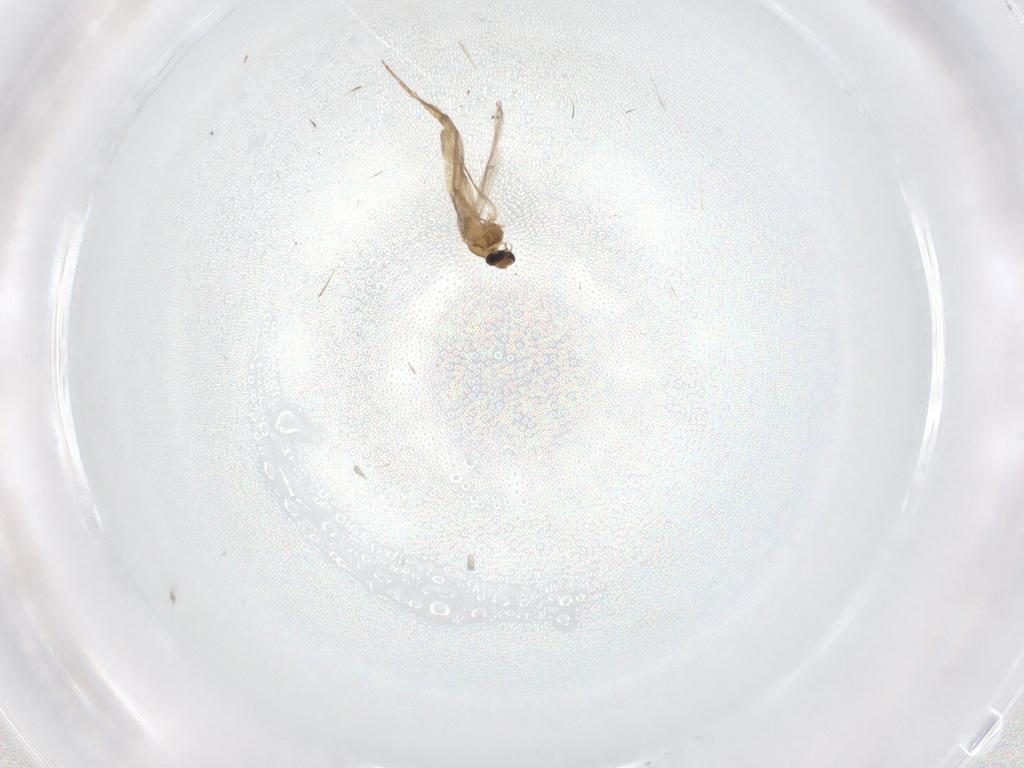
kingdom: Animalia
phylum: Arthropoda
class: Insecta
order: Diptera
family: Chironomidae
